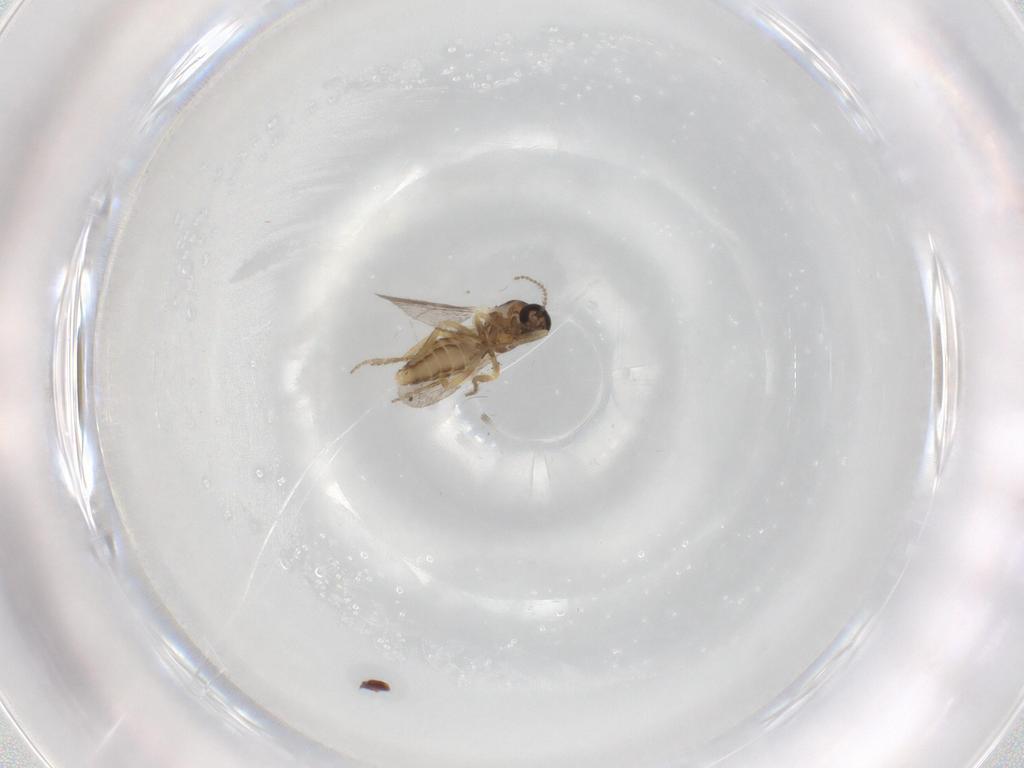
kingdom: Animalia
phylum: Arthropoda
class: Insecta
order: Diptera
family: Ceratopogonidae
